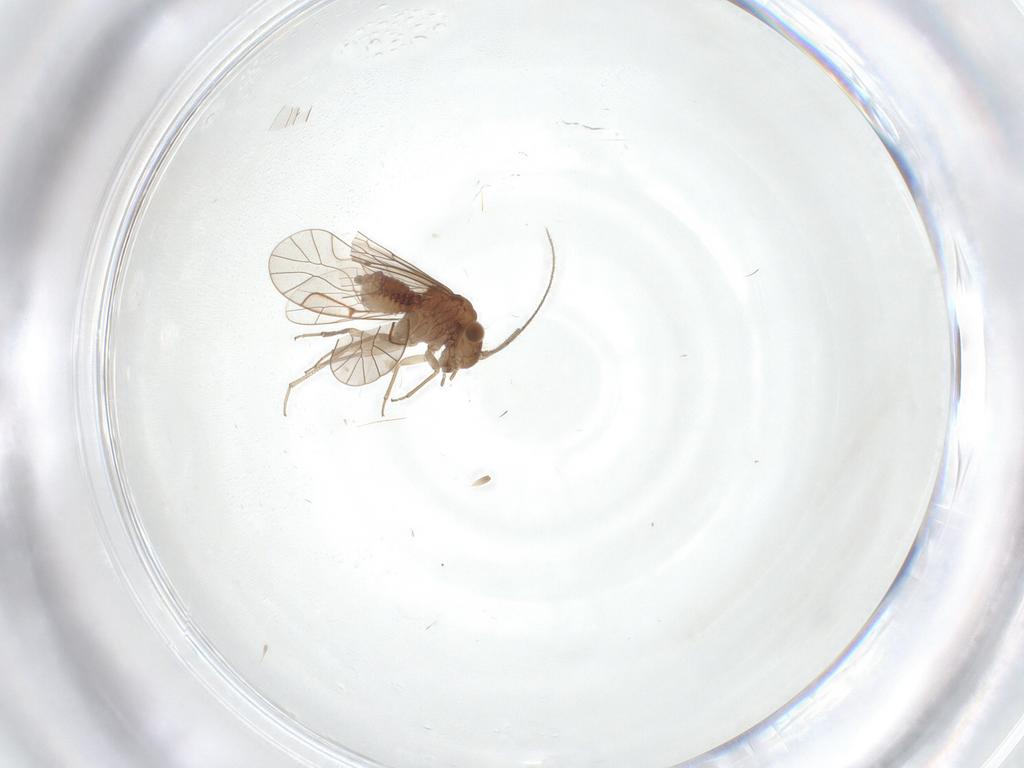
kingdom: Animalia
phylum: Arthropoda
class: Insecta
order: Psocodea
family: Lachesillidae
